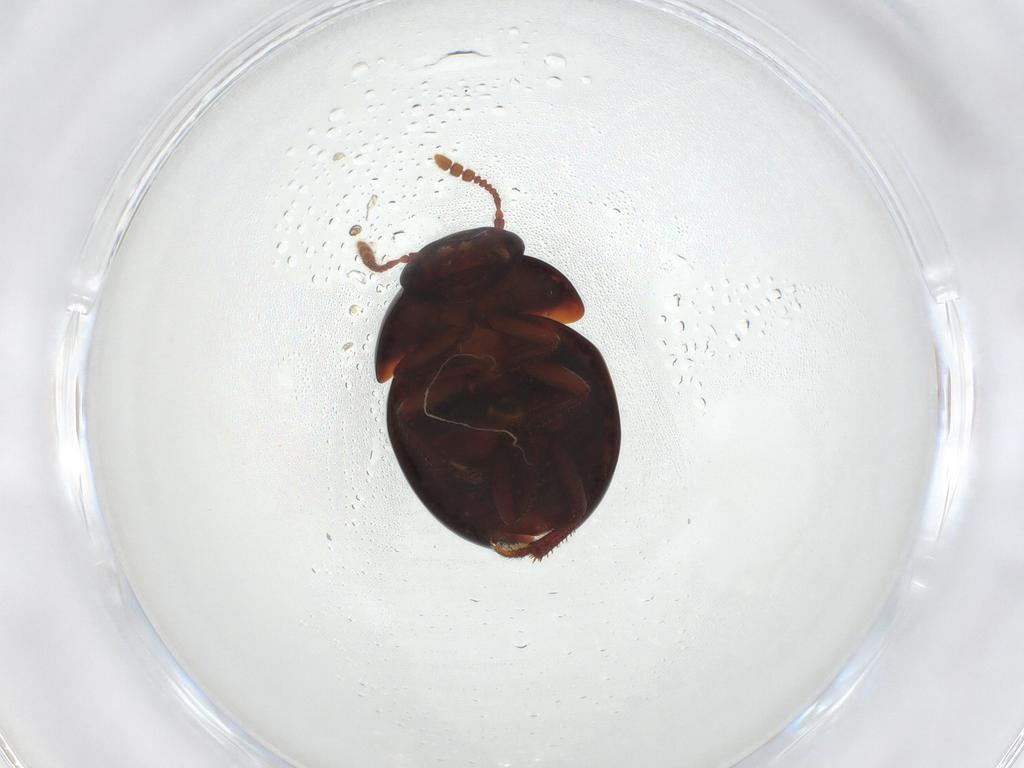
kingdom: Animalia
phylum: Arthropoda
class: Insecta
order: Coleoptera
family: Leiodidae
